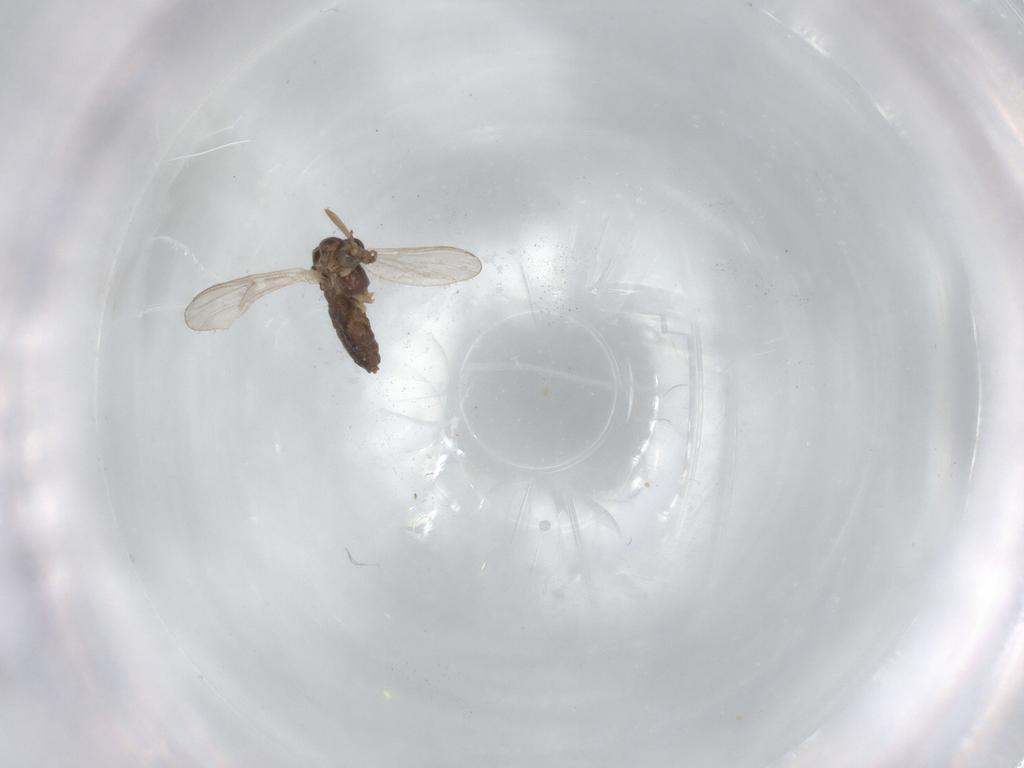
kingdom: Animalia
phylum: Arthropoda
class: Insecta
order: Diptera
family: Chironomidae
